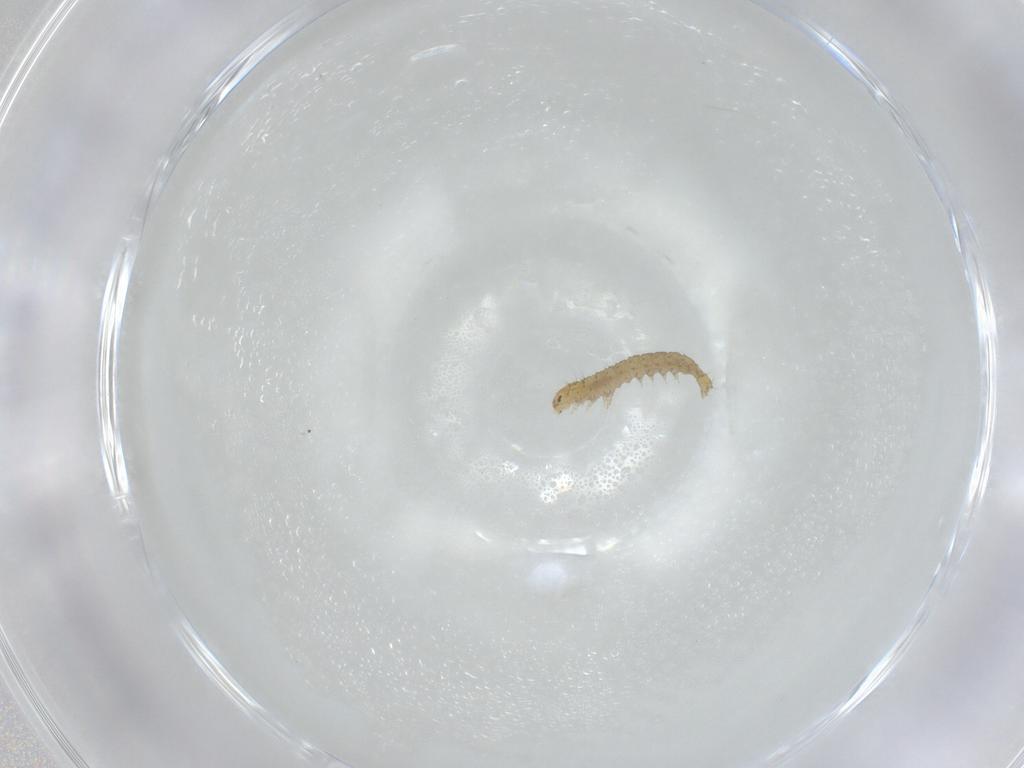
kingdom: Animalia
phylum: Arthropoda
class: Insecta
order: Lepidoptera
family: Gelechiidae
